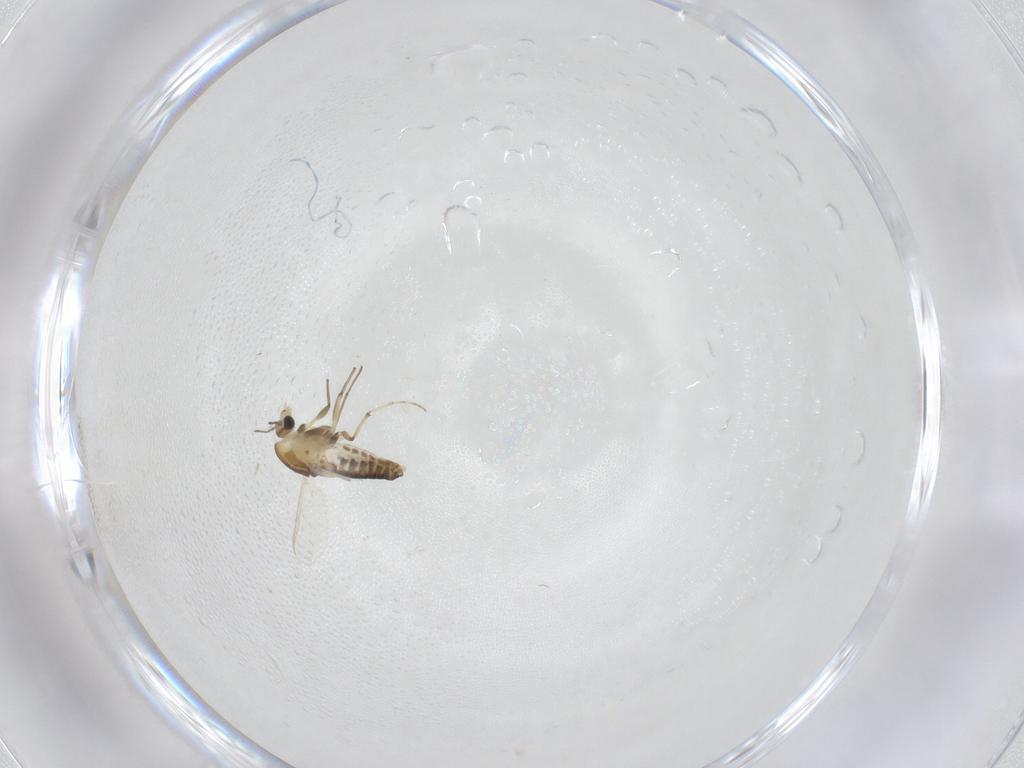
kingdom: Animalia
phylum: Arthropoda
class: Insecta
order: Diptera
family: Chironomidae
